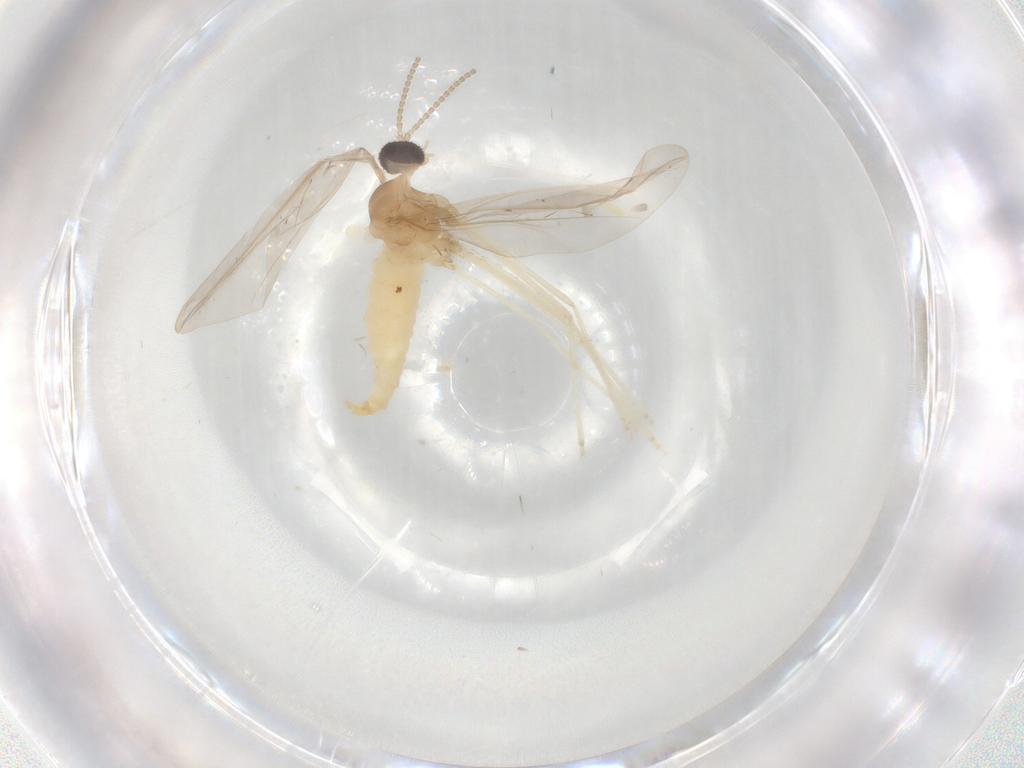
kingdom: Animalia
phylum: Arthropoda
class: Insecta
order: Diptera
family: Cecidomyiidae
